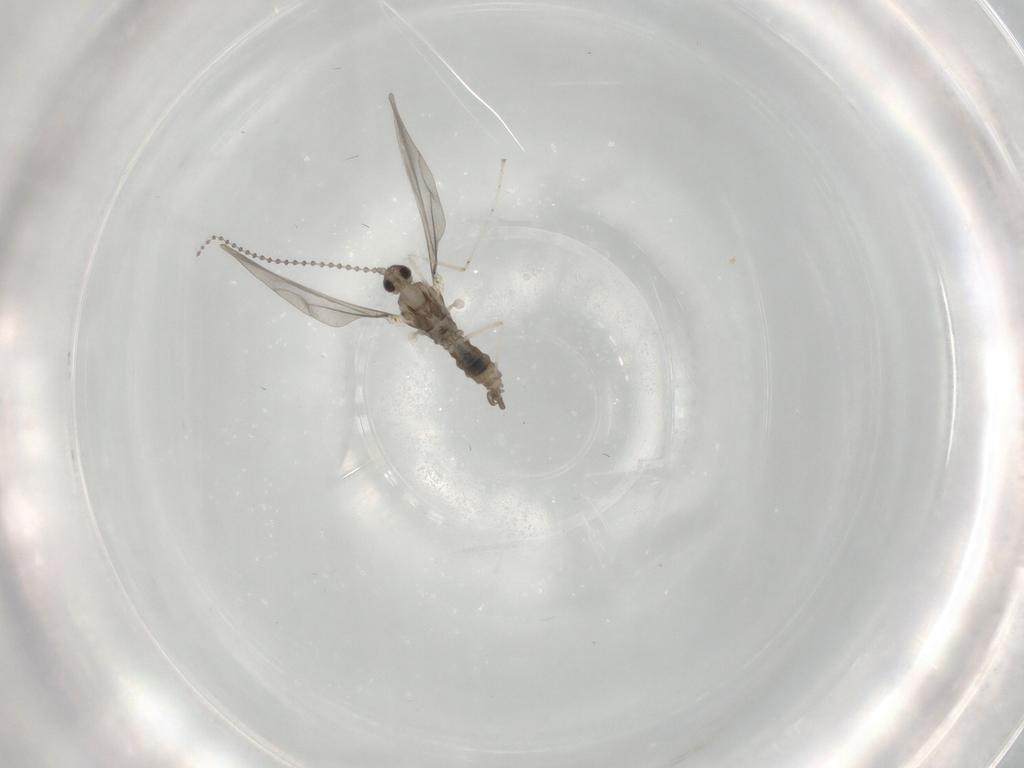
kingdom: Animalia
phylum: Arthropoda
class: Insecta
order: Diptera
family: Cecidomyiidae
